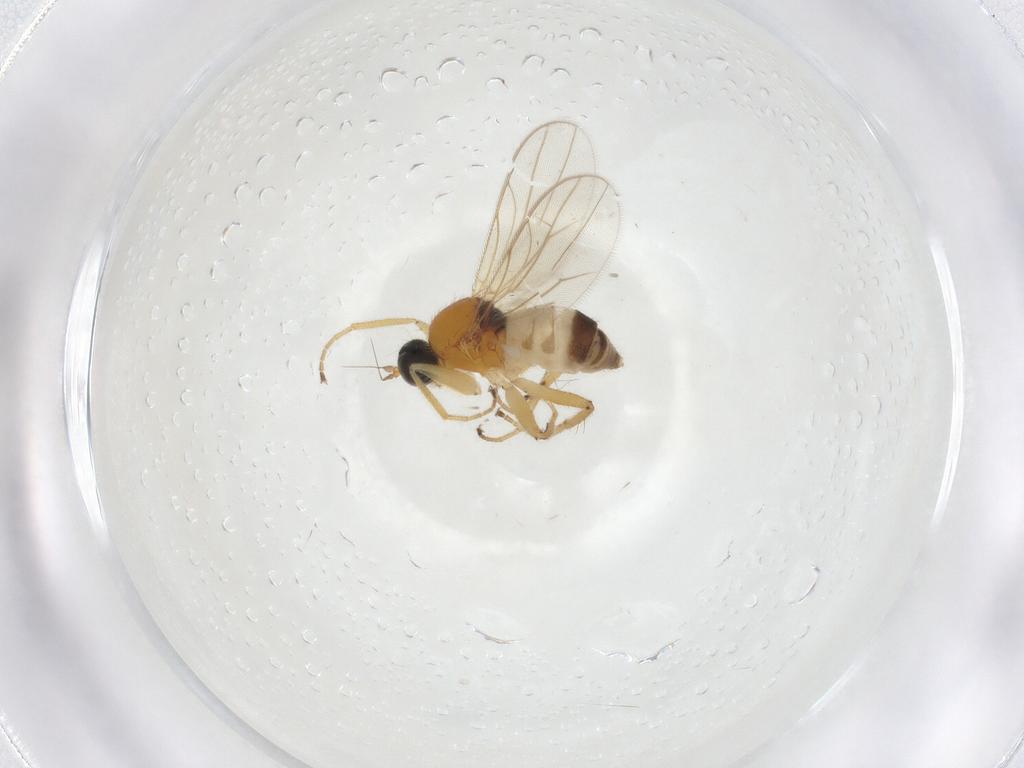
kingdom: Animalia
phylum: Arthropoda
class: Insecta
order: Diptera
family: Hybotidae
